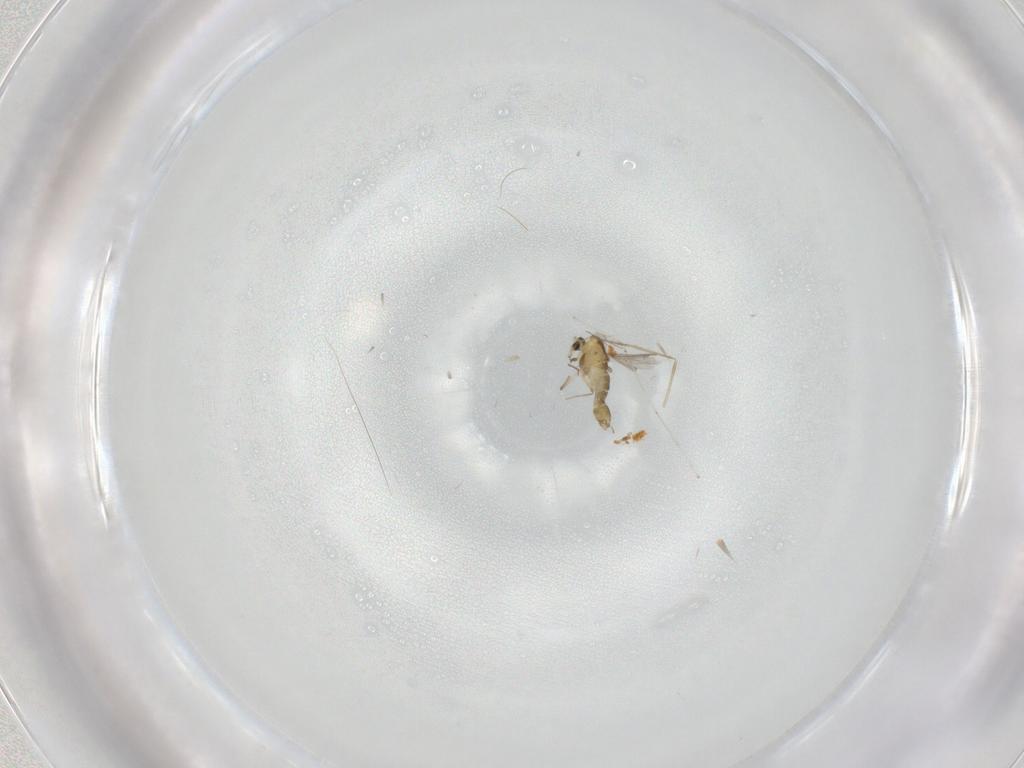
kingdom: Animalia
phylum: Arthropoda
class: Insecta
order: Diptera
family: Chironomidae
